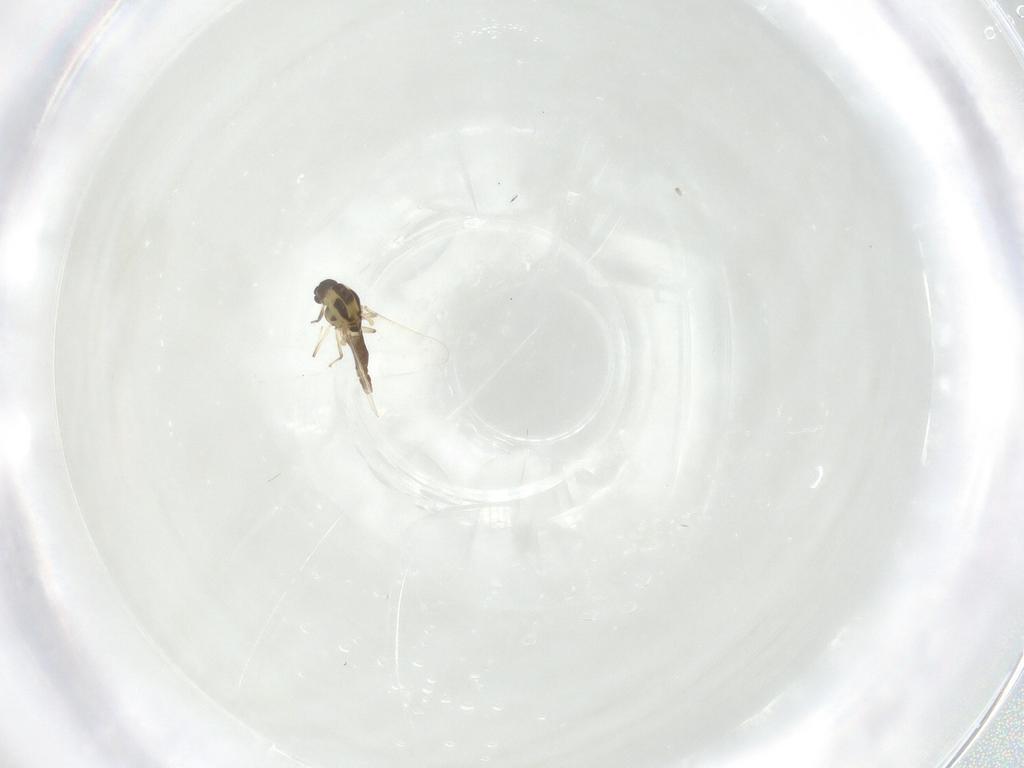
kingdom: Animalia
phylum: Arthropoda
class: Insecta
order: Diptera
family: Chironomidae
